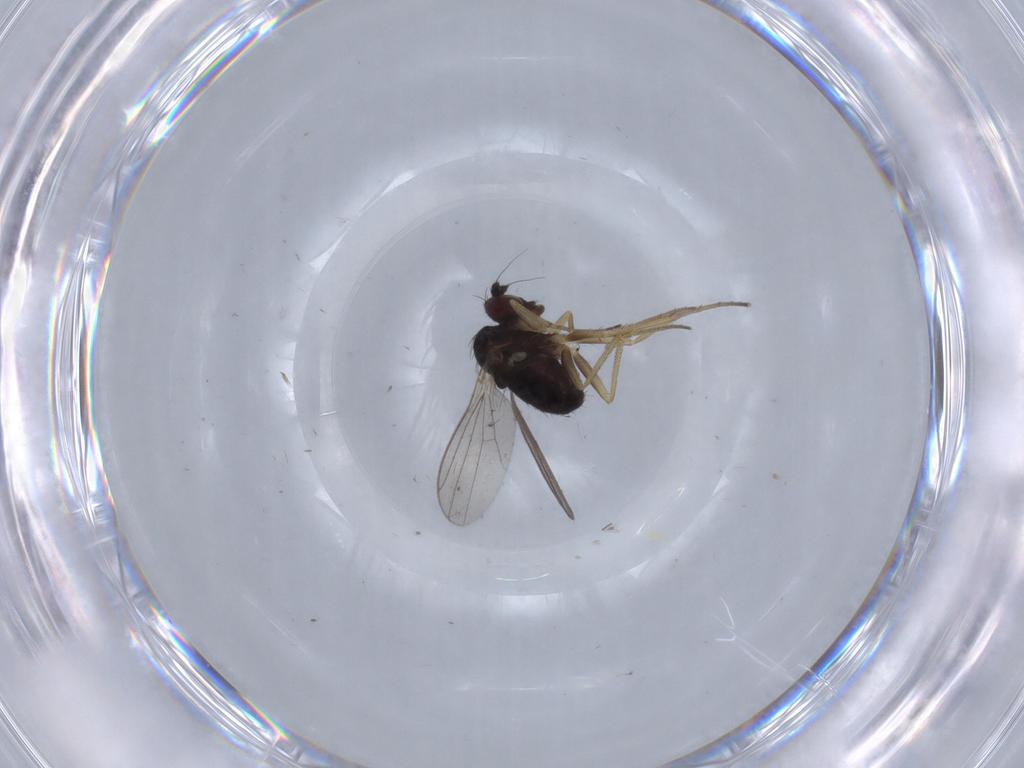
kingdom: Animalia
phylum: Arthropoda
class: Insecta
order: Diptera
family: Dolichopodidae
